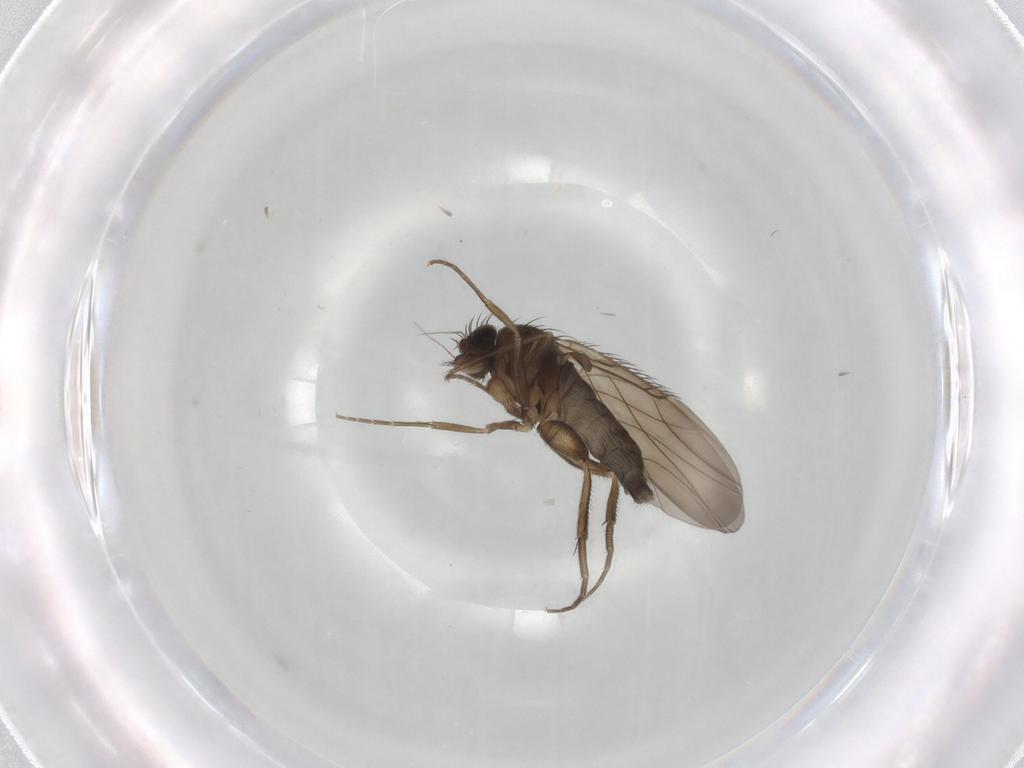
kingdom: Animalia
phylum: Arthropoda
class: Insecta
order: Diptera
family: Phoridae
